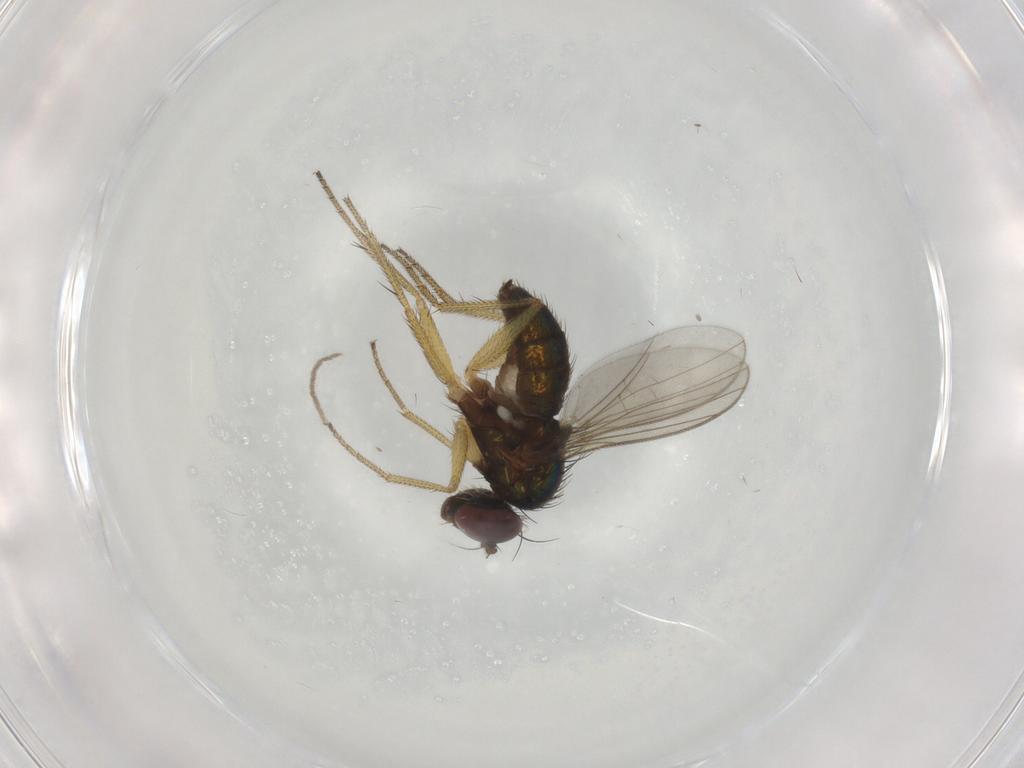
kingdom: Animalia
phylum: Arthropoda
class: Insecta
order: Diptera
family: Dolichopodidae
